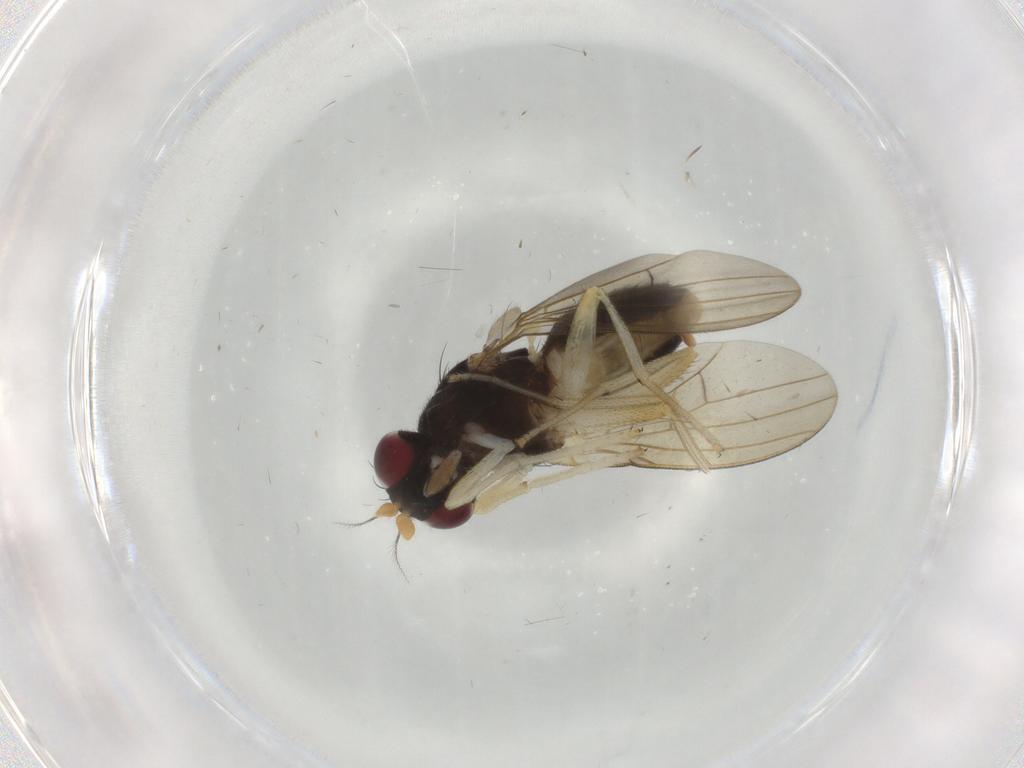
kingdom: Animalia
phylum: Arthropoda
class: Insecta
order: Diptera
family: Syrphidae
